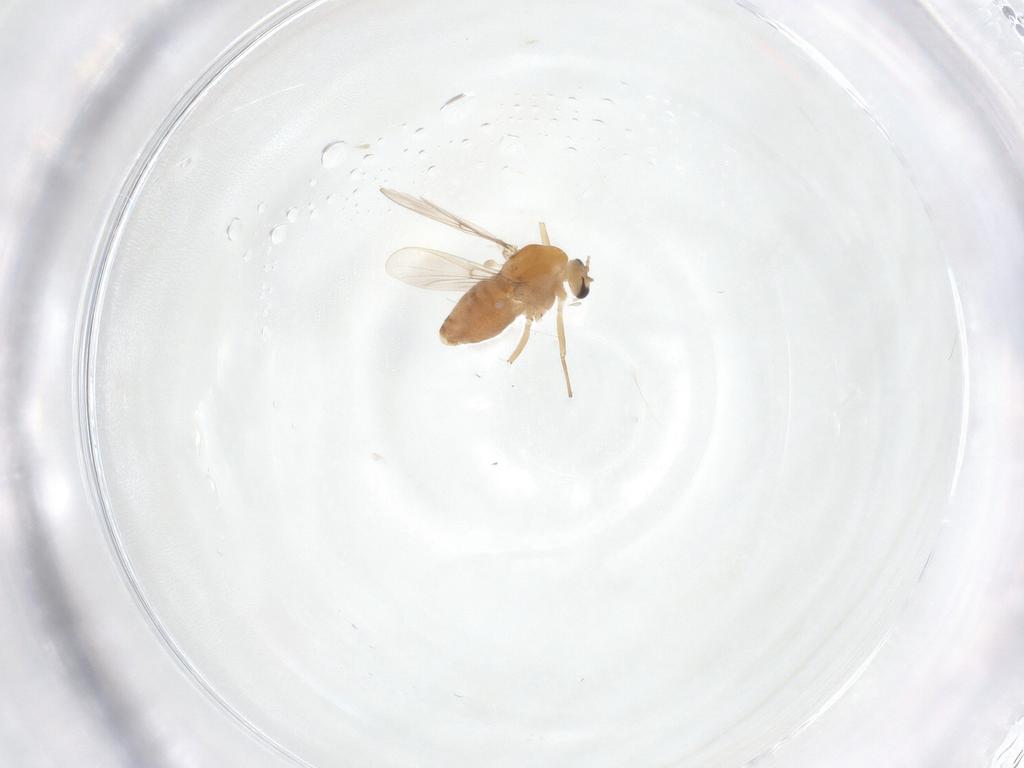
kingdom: Animalia
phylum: Arthropoda
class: Insecta
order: Diptera
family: Chironomidae
